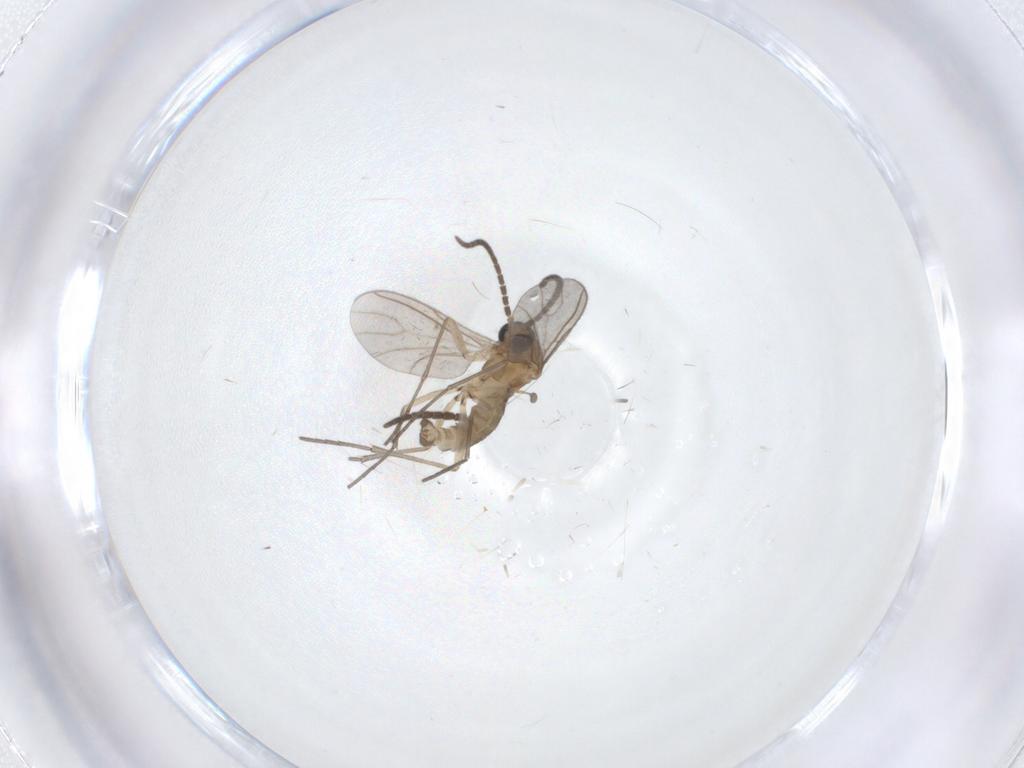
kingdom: Animalia
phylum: Arthropoda
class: Insecta
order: Diptera
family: Sciaridae
